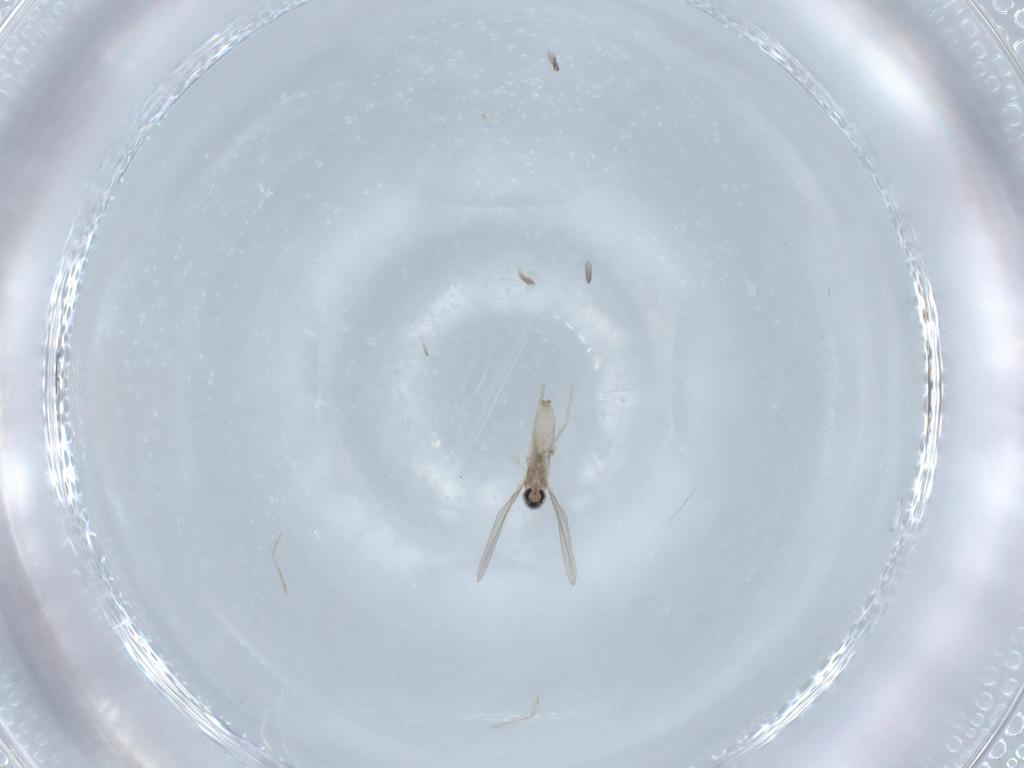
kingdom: Animalia
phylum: Arthropoda
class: Insecta
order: Diptera
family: Cecidomyiidae
